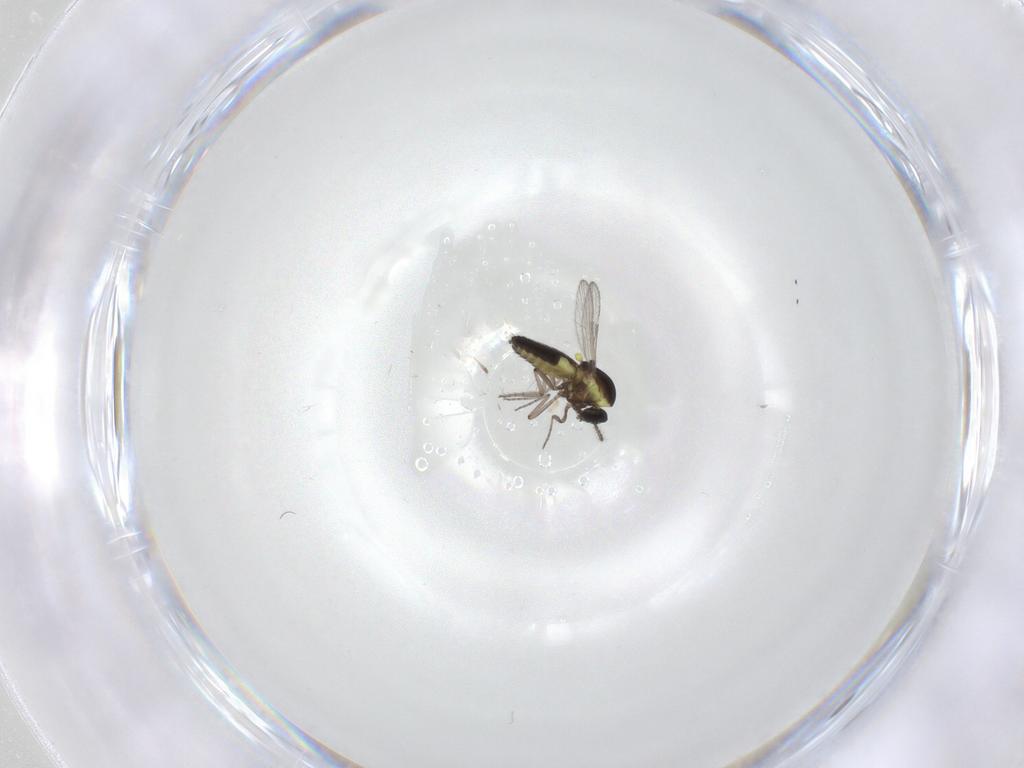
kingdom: Animalia
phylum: Arthropoda
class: Insecta
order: Diptera
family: Ceratopogonidae
